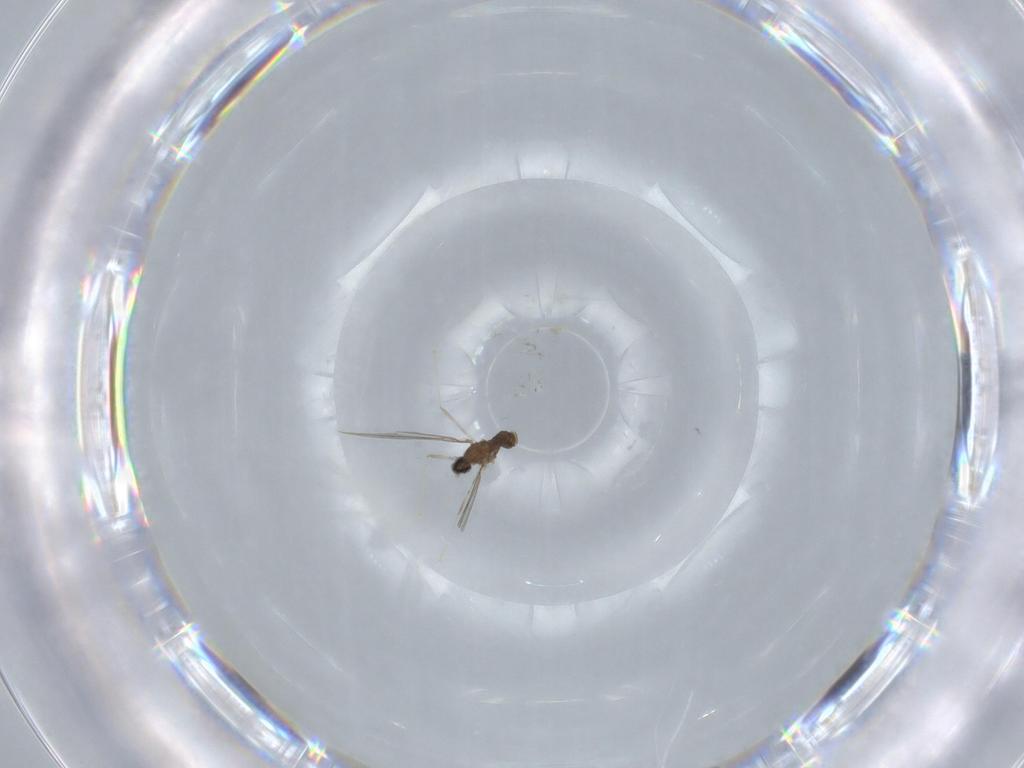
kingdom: Animalia
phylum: Arthropoda
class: Insecta
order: Diptera
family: Cecidomyiidae
